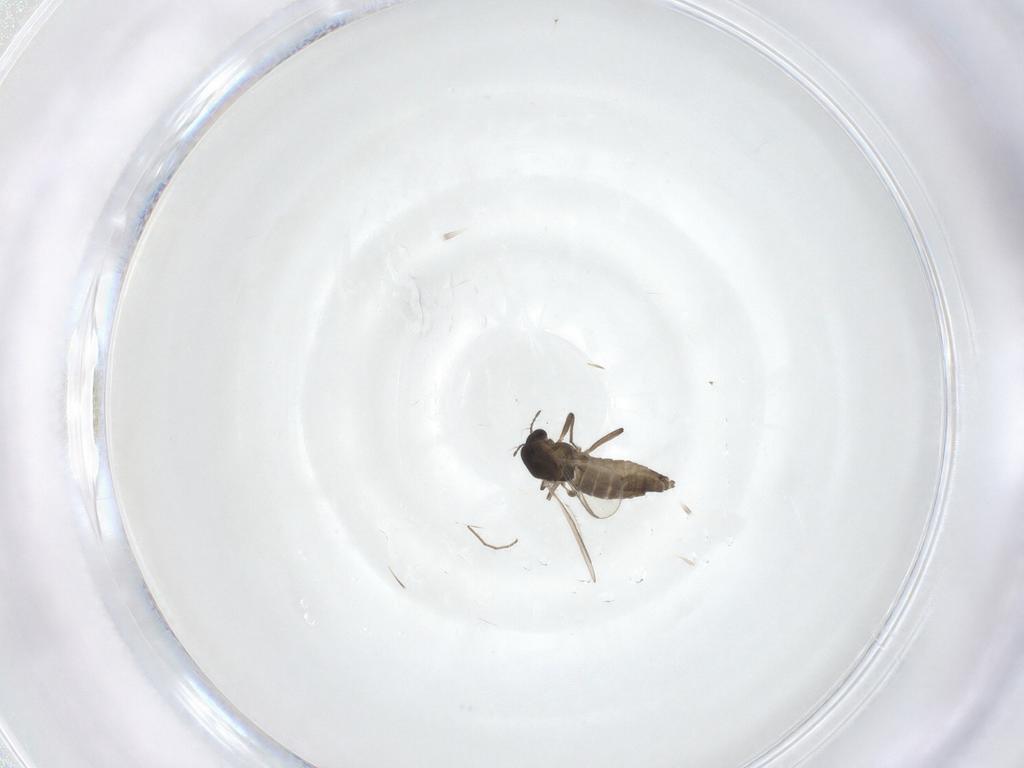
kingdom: Animalia
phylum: Arthropoda
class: Insecta
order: Diptera
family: Chironomidae
